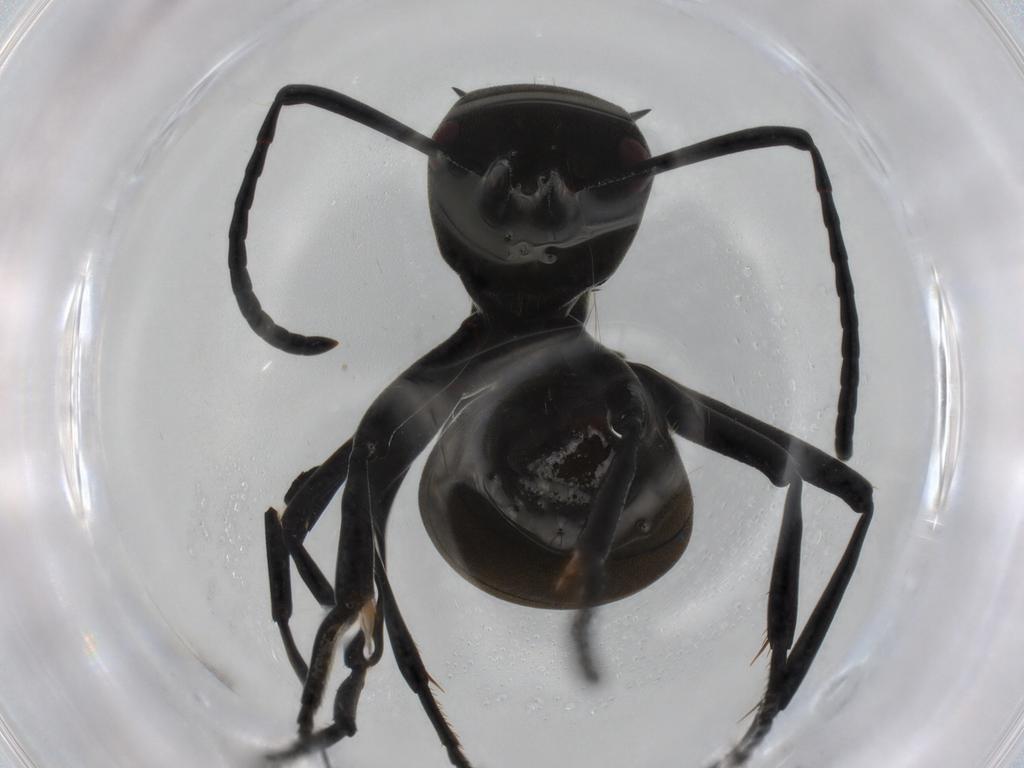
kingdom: Animalia
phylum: Arthropoda
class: Insecta
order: Hymenoptera
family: Formicidae
